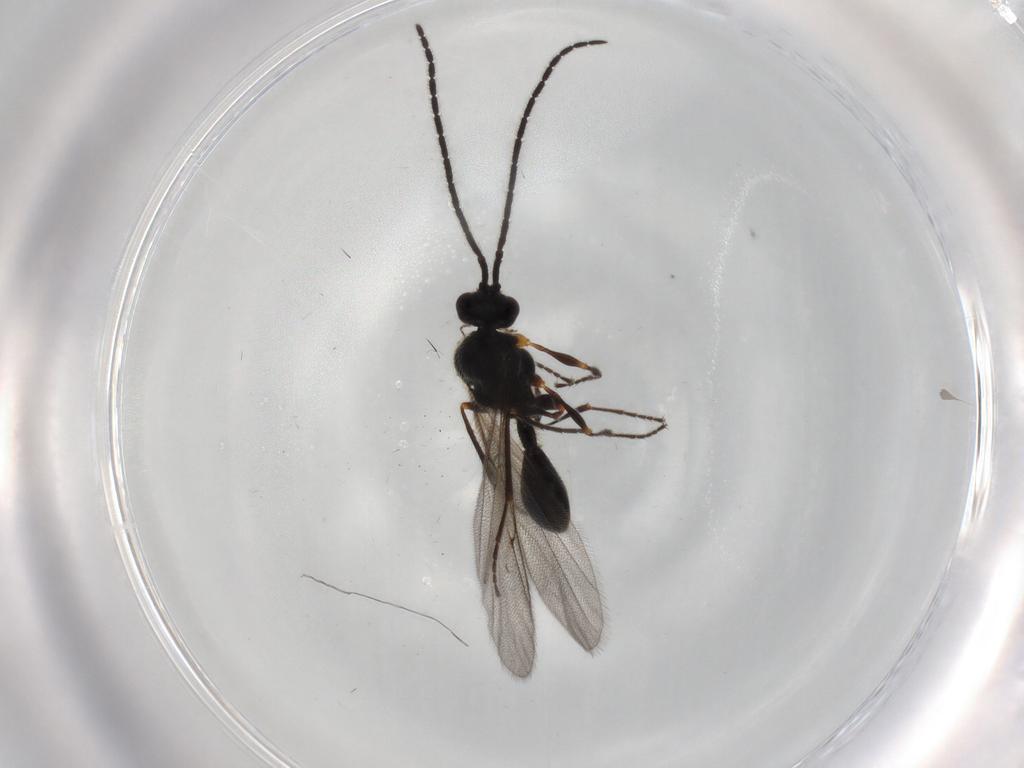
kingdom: Animalia
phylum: Arthropoda
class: Insecta
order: Hymenoptera
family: Diapriidae
